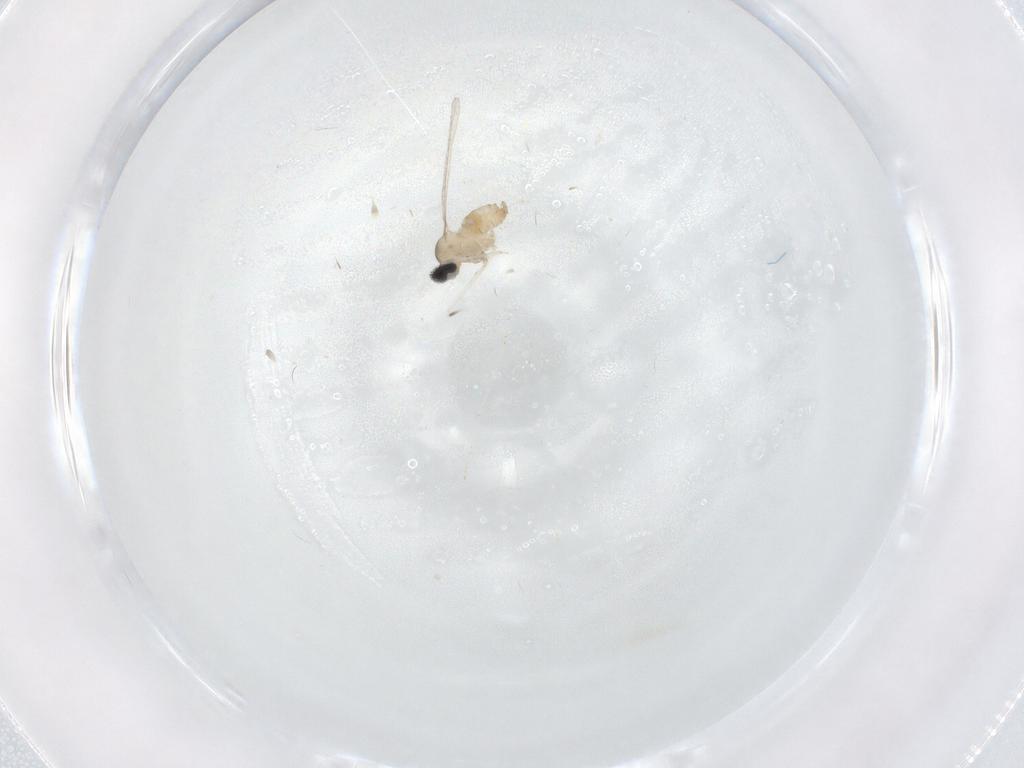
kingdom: Animalia
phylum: Arthropoda
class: Insecta
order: Diptera
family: Cecidomyiidae
